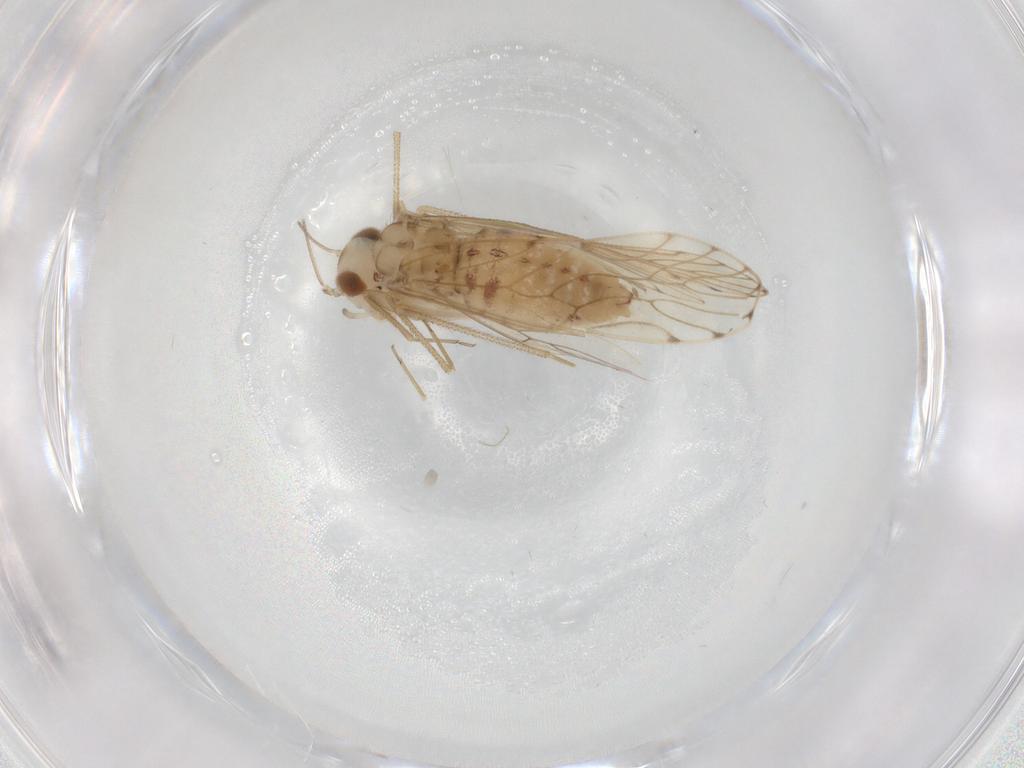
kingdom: Animalia
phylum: Arthropoda
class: Insecta
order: Psocodea
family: Epipsocidae
